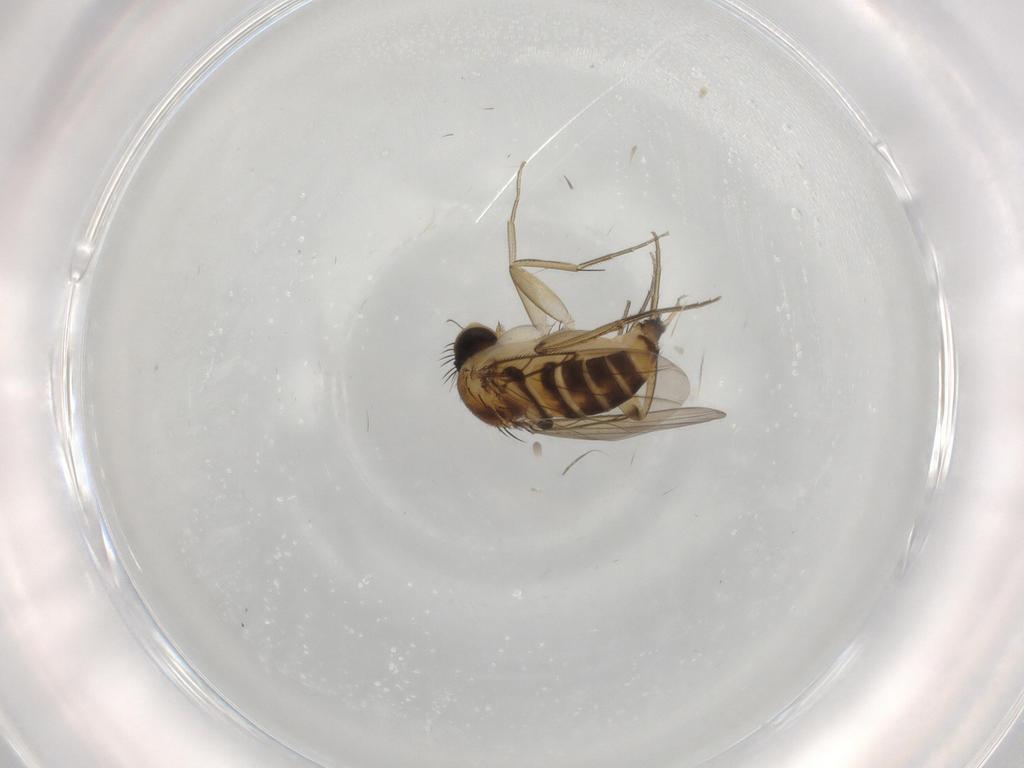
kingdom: Animalia
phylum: Arthropoda
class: Insecta
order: Diptera
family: Phoridae
